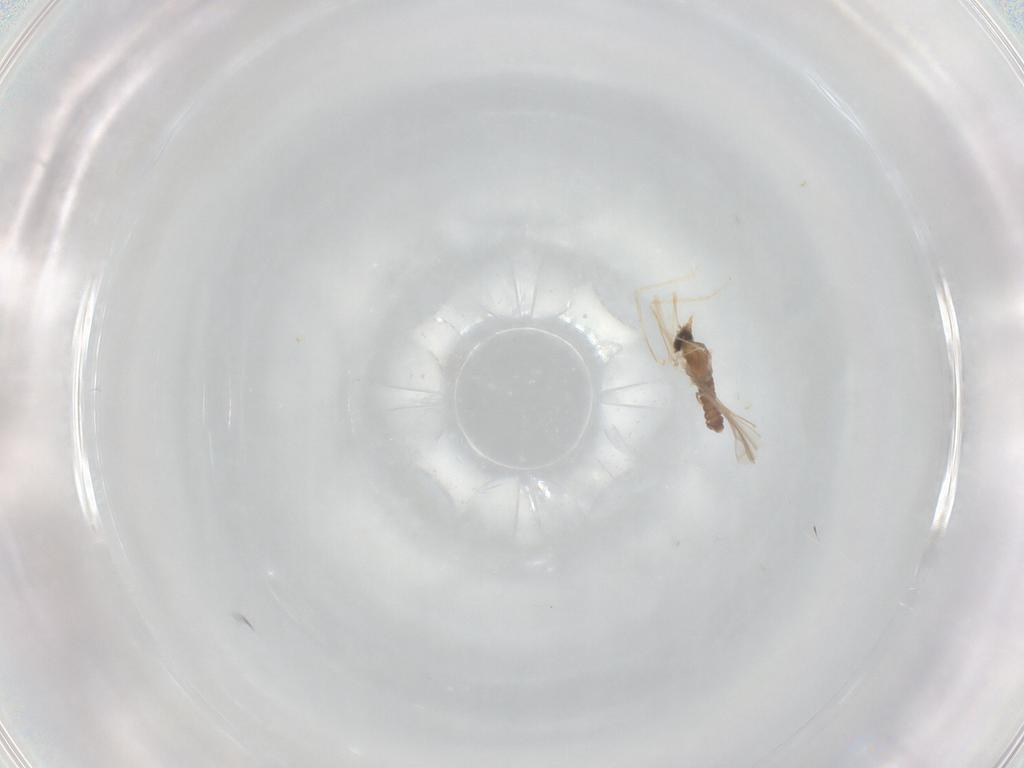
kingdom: Animalia
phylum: Arthropoda
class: Insecta
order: Diptera
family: Cecidomyiidae
